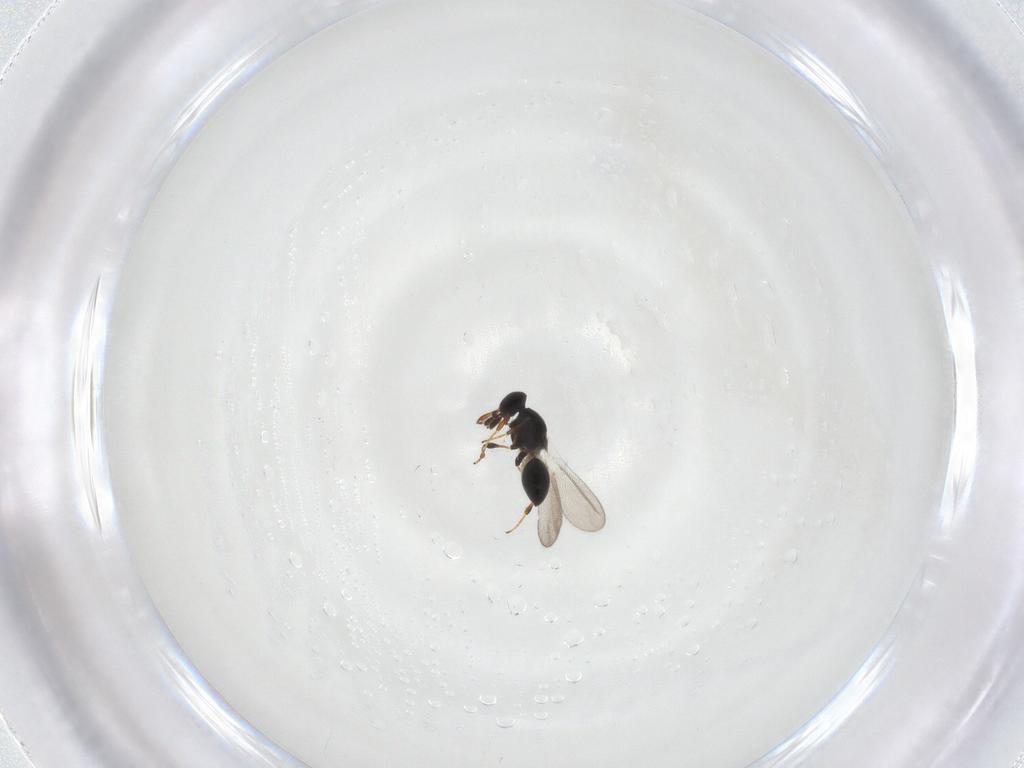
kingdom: Animalia
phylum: Arthropoda
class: Insecta
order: Hymenoptera
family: Platygastridae
